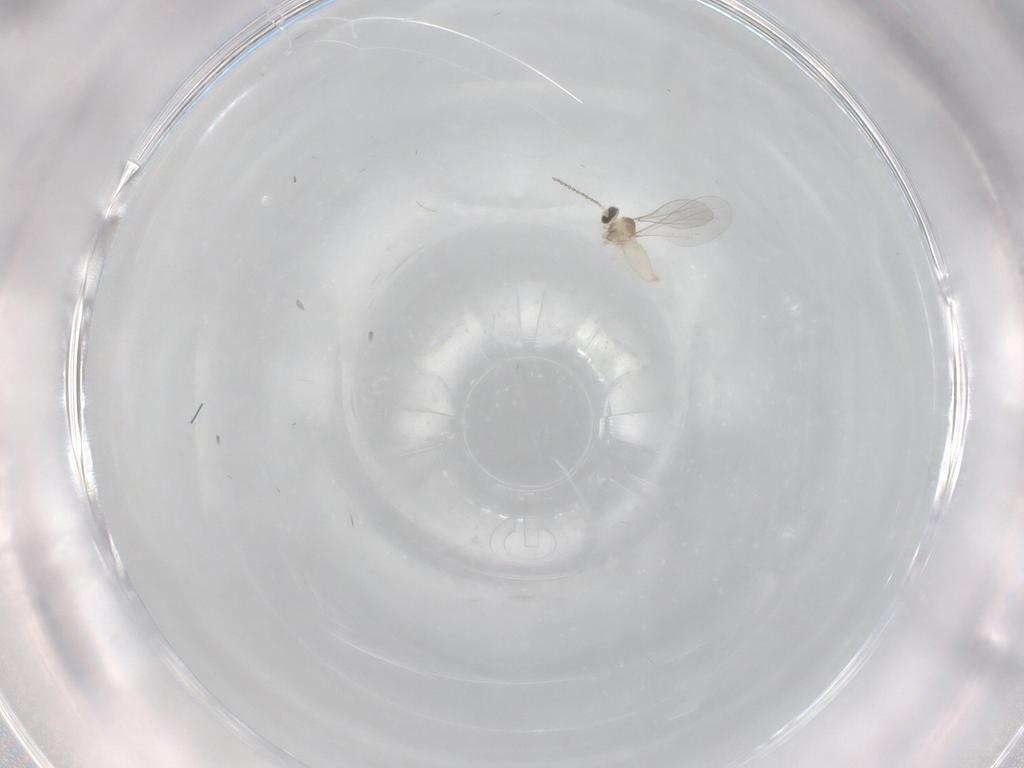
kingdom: Animalia
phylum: Arthropoda
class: Insecta
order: Diptera
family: Cecidomyiidae
